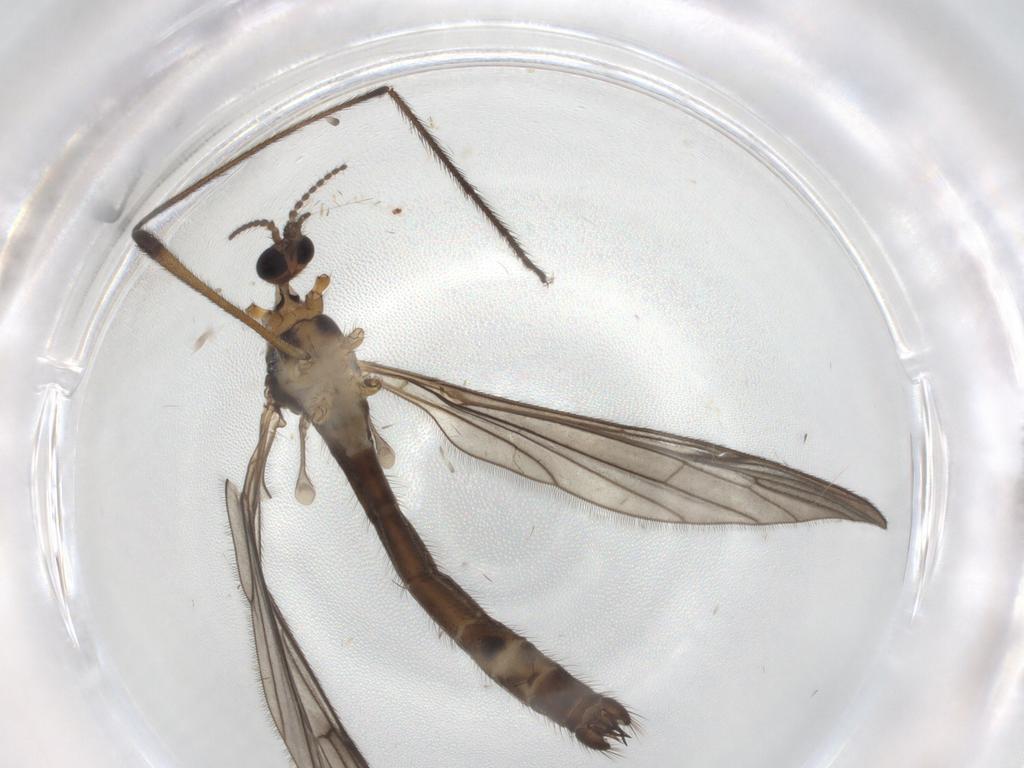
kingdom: Animalia
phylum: Arthropoda
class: Insecta
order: Diptera
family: Limoniidae
